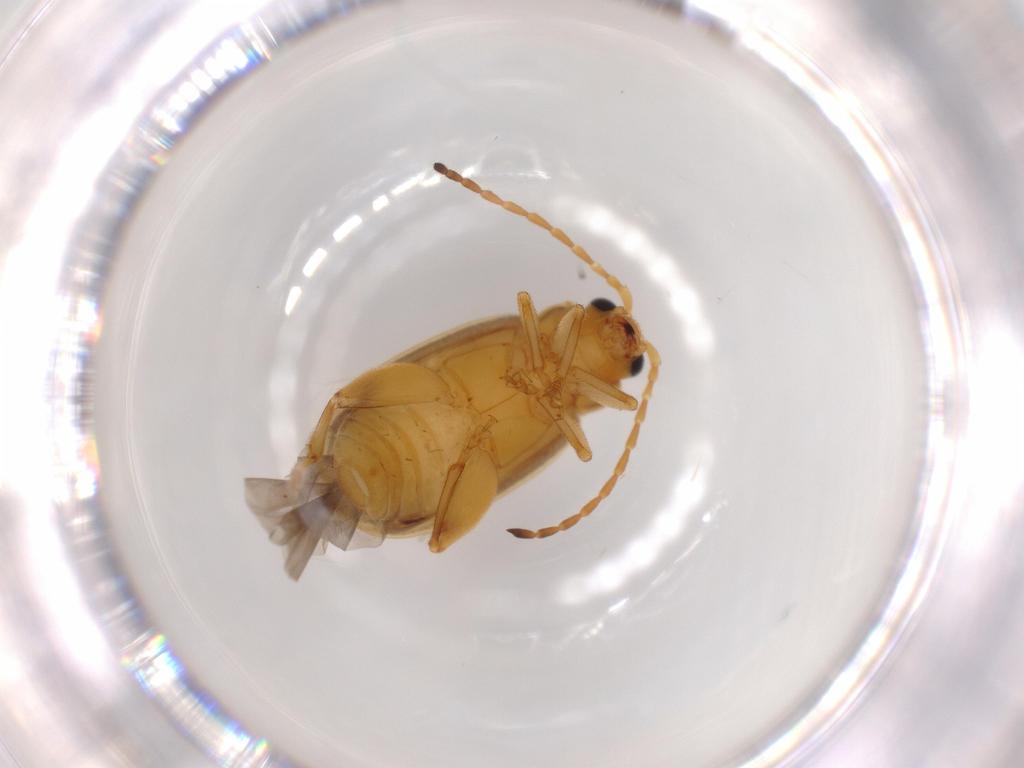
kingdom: Animalia
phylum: Arthropoda
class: Insecta
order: Coleoptera
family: Chrysomelidae
